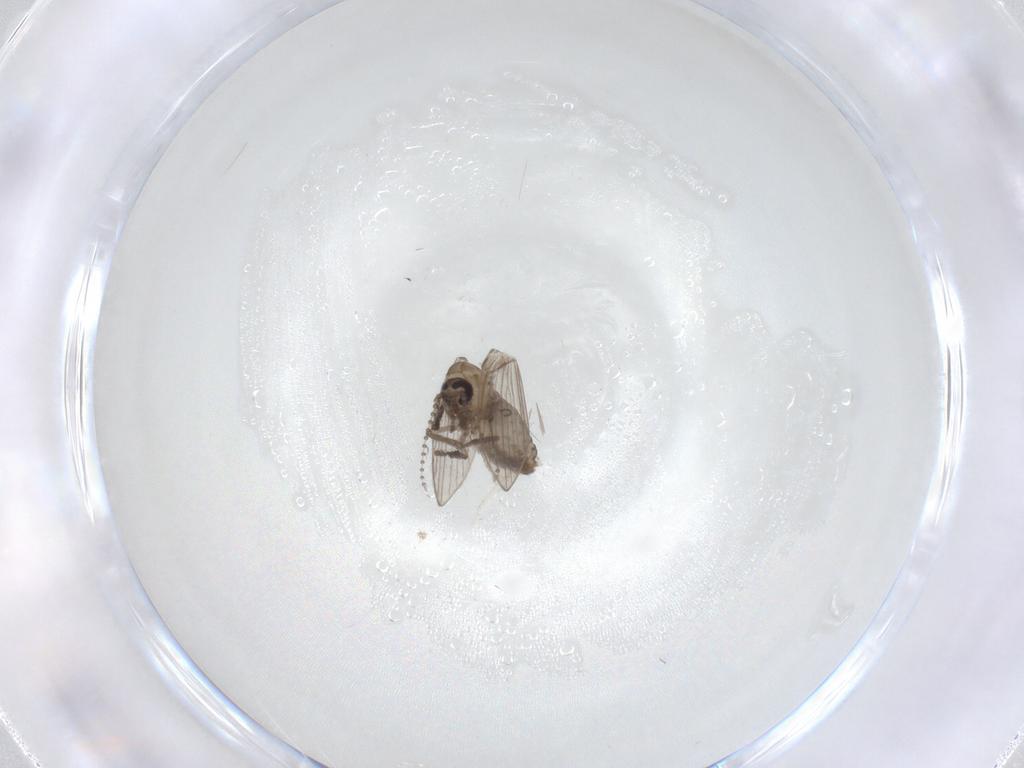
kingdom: Animalia
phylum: Arthropoda
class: Insecta
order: Diptera
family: Psychodidae
